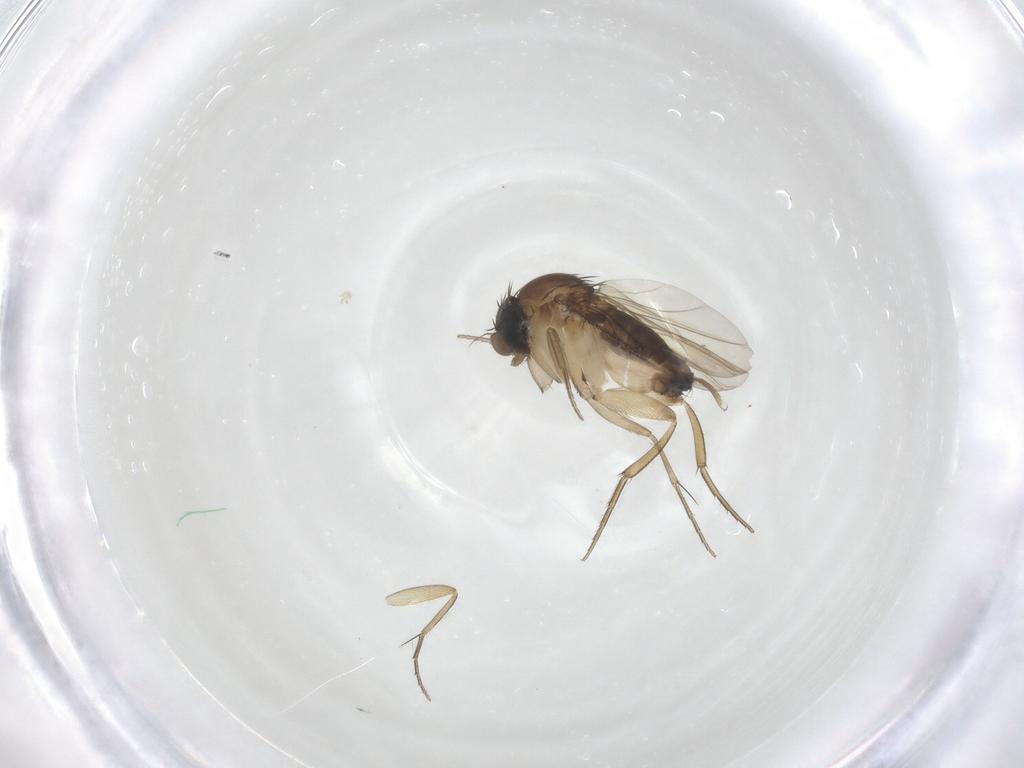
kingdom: Animalia
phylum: Arthropoda
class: Insecta
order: Diptera
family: Phoridae
